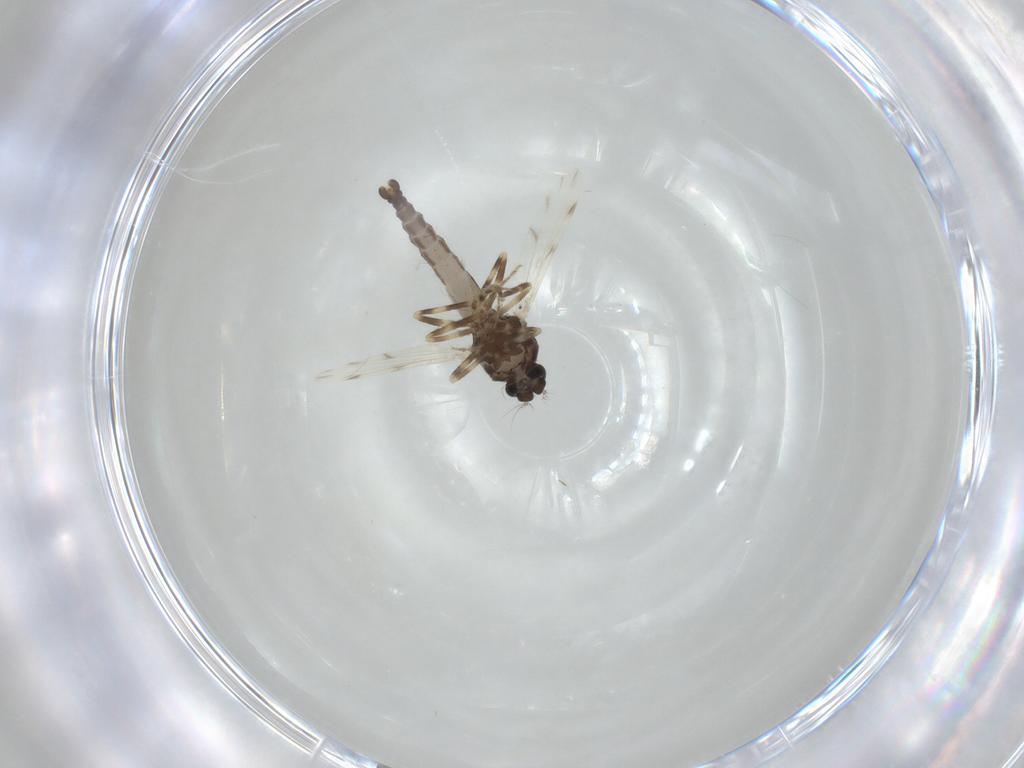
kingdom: Animalia
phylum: Arthropoda
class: Insecta
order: Diptera
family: Ceratopogonidae
